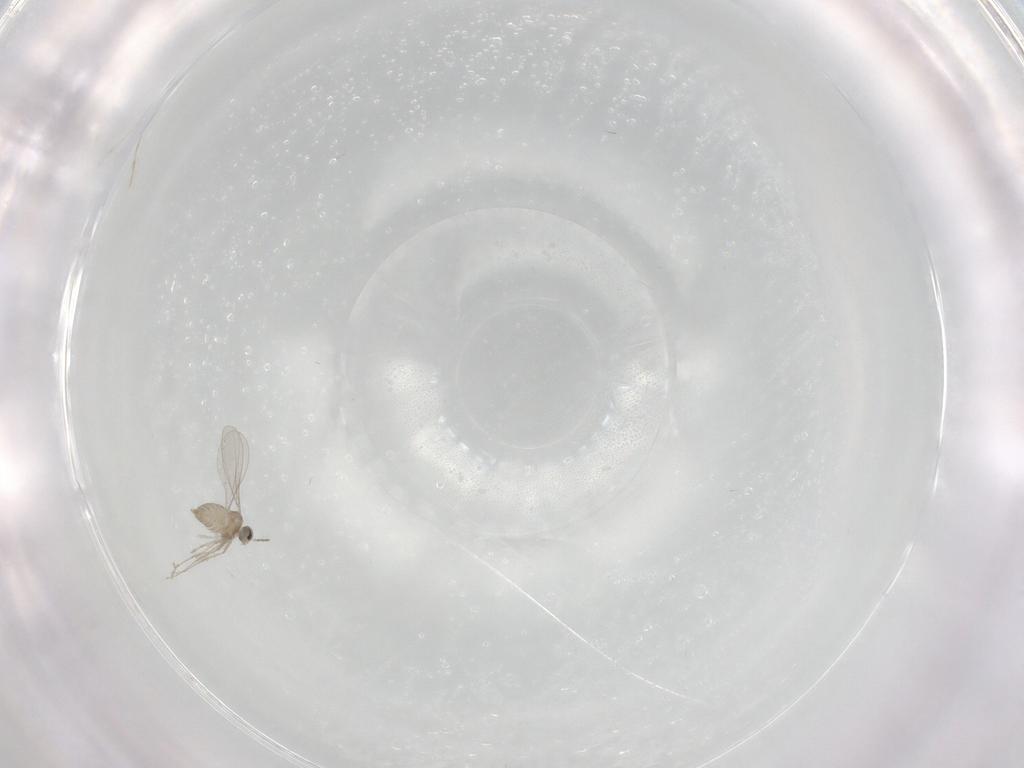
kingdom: Animalia
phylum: Arthropoda
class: Insecta
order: Diptera
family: Cecidomyiidae
